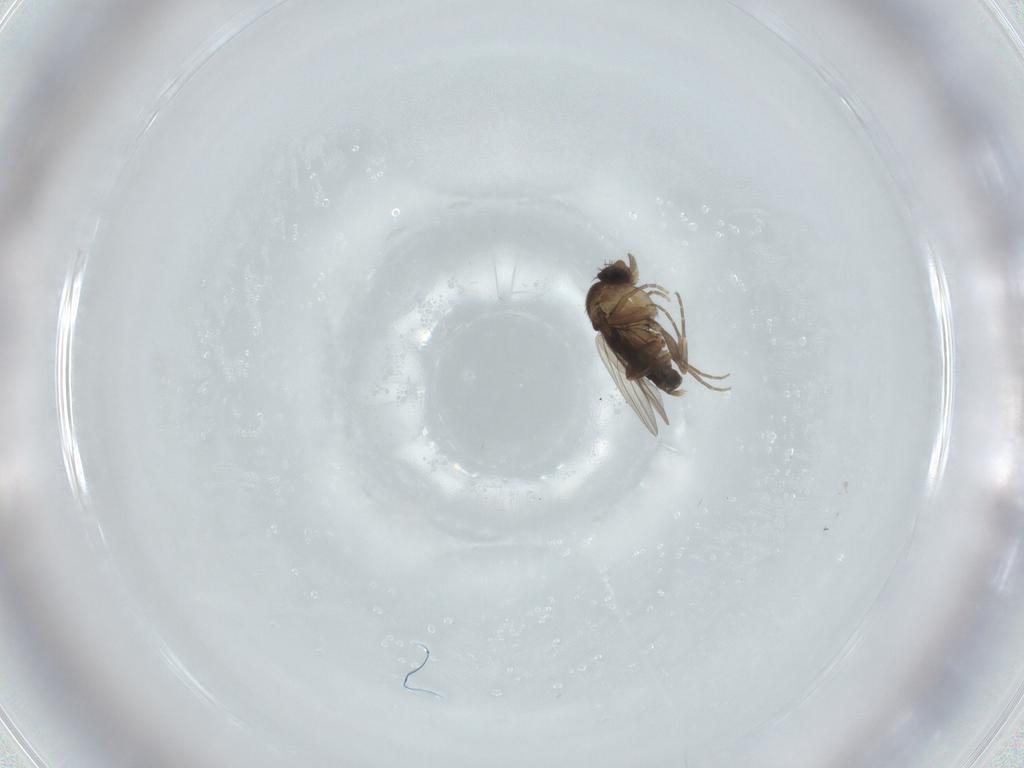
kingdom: Animalia
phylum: Arthropoda
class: Insecta
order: Diptera
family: Phoridae
